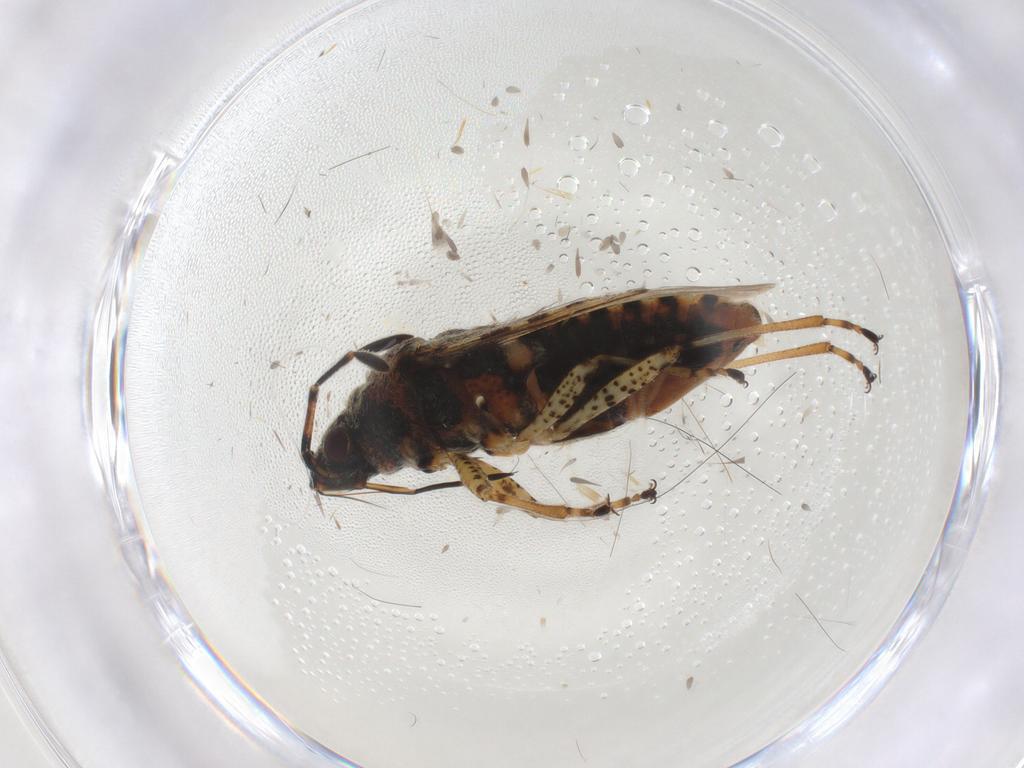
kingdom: Animalia
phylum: Arthropoda
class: Insecta
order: Hemiptera
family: Lygaeidae
